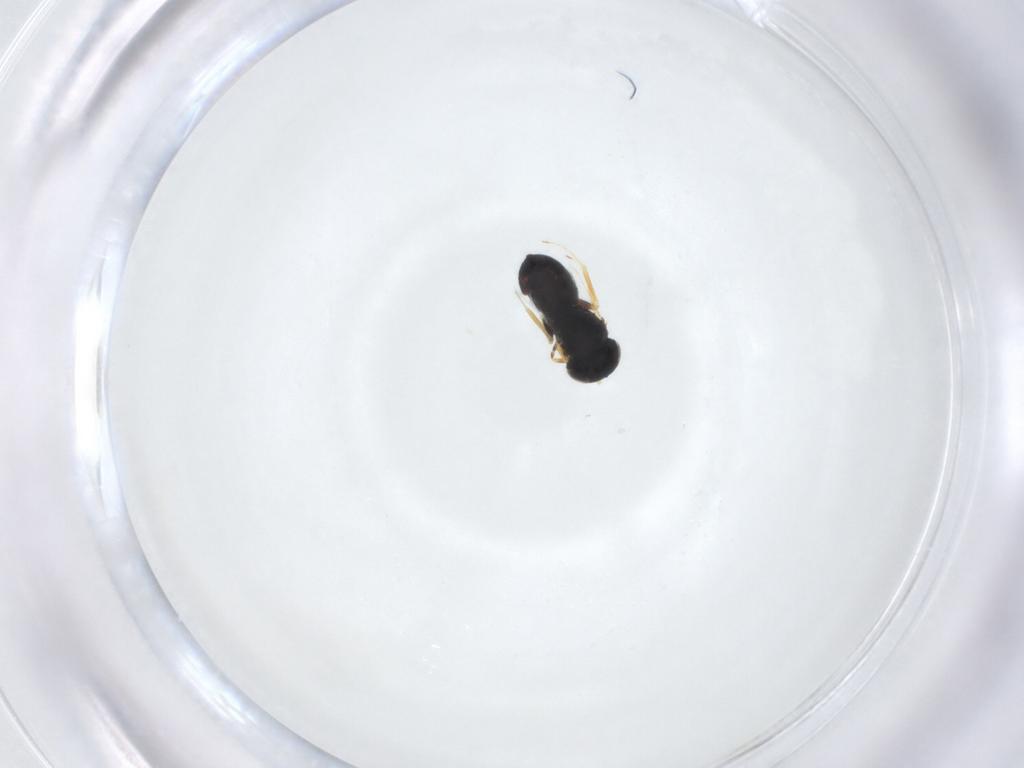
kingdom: Animalia
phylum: Arthropoda
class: Insecta
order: Hymenoptera
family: Scelionidae
